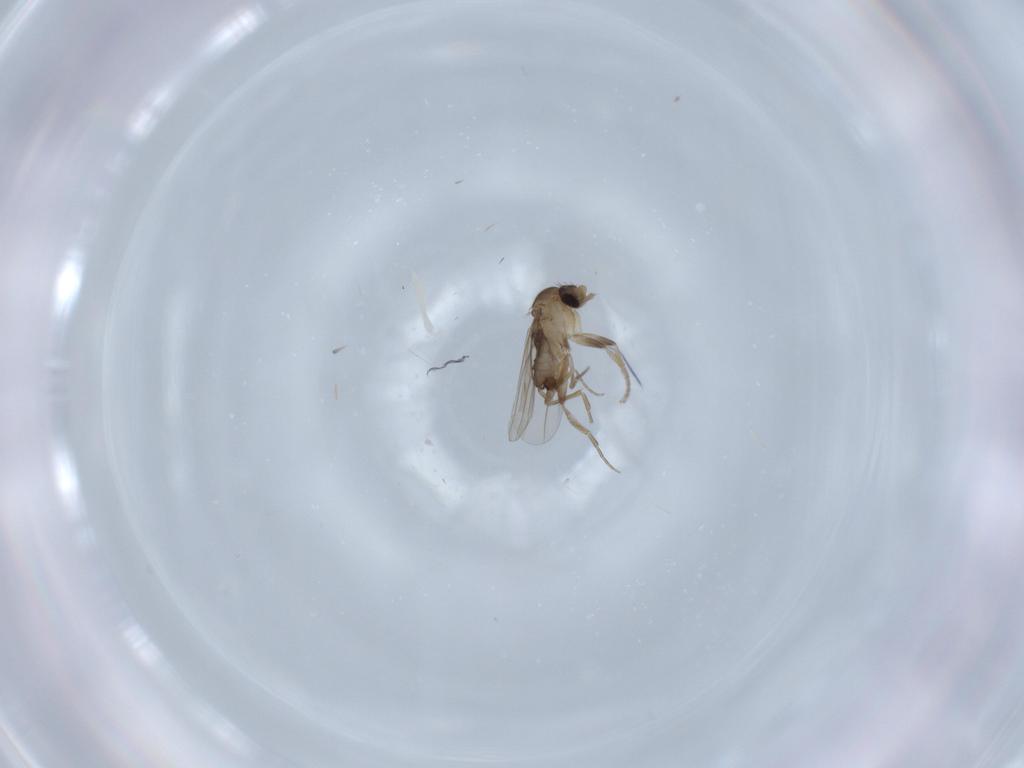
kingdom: Animalia
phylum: Arthropoda
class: Insecta
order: Diptera
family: Phoridae
